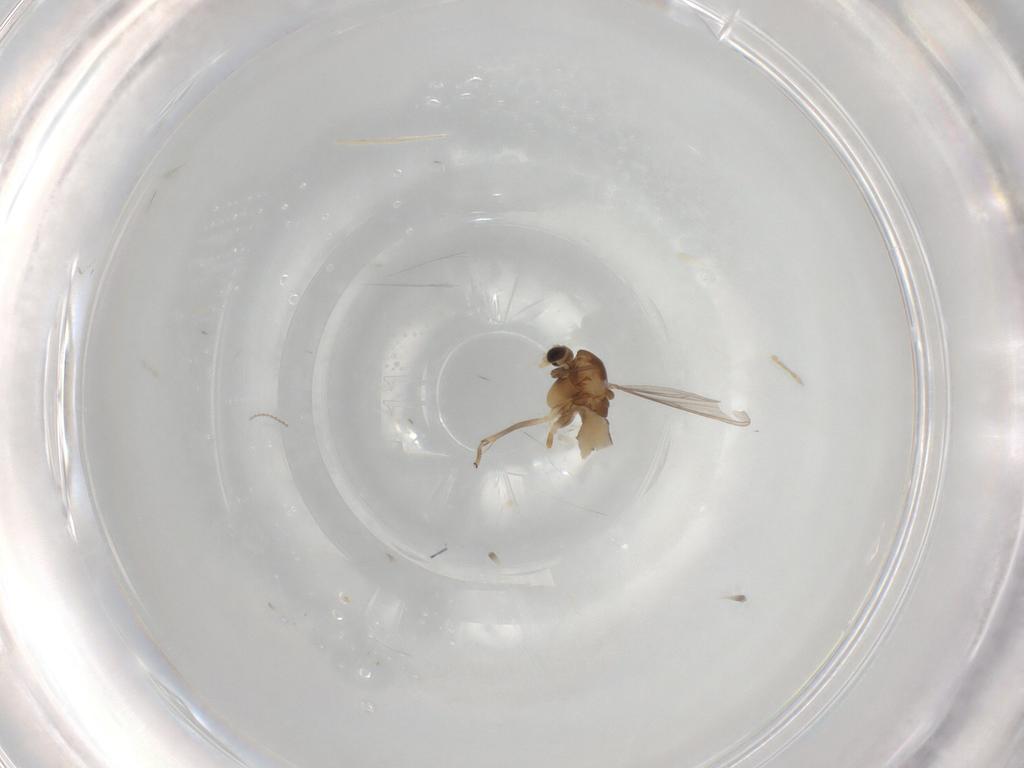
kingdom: Animalia
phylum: Arthropoda
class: Insecta
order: Diptera
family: Chironomidae
